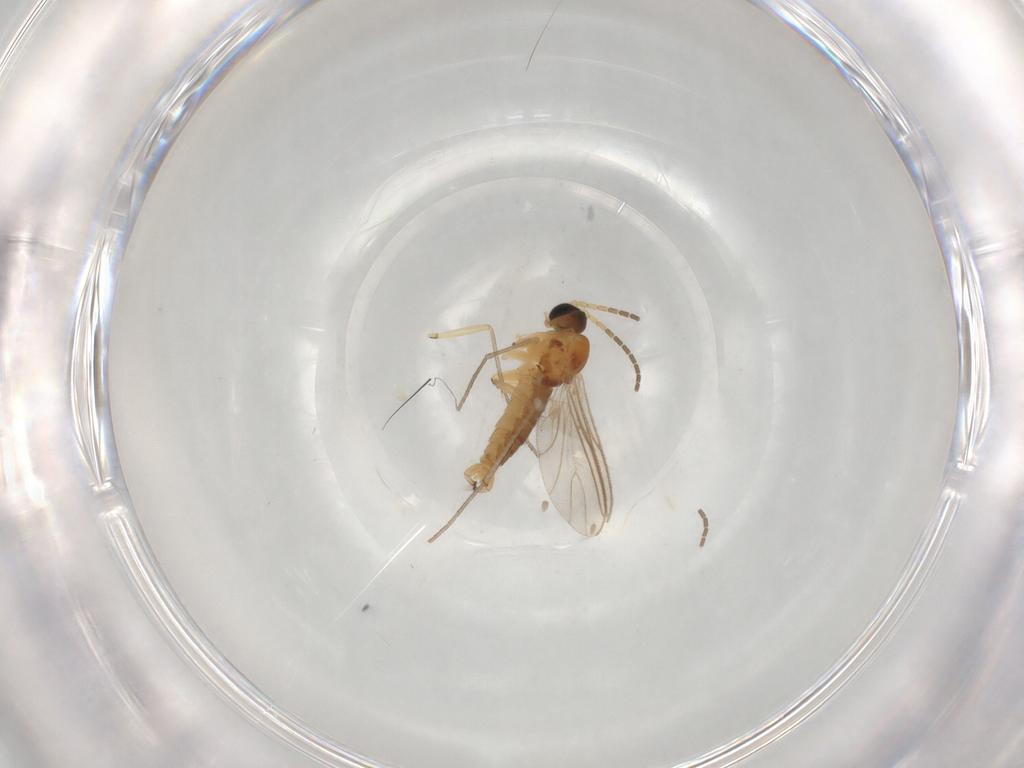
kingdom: Animalia
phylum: Arthropoda
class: Insecta
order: Diptera
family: Sciaridae
